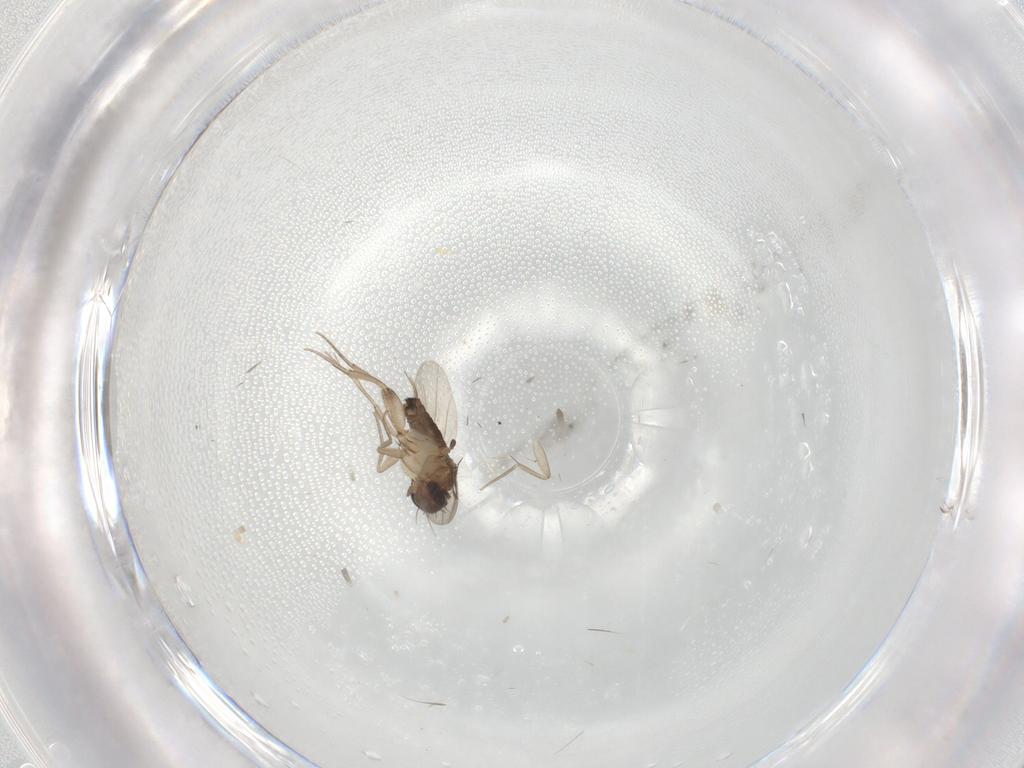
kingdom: Animalia
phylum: Arthropoda
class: Insecta
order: Diptera
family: Phoridae
